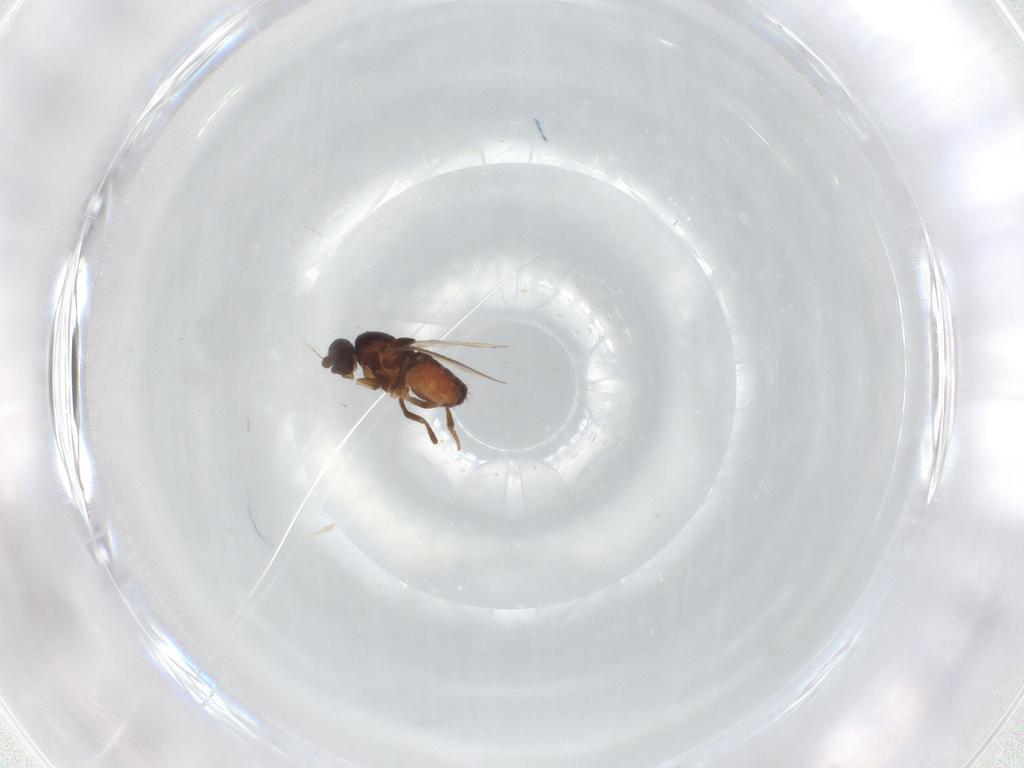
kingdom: Animalia
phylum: Arthropoda
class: Insecta
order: Diptera
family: Sphaeroceridae
